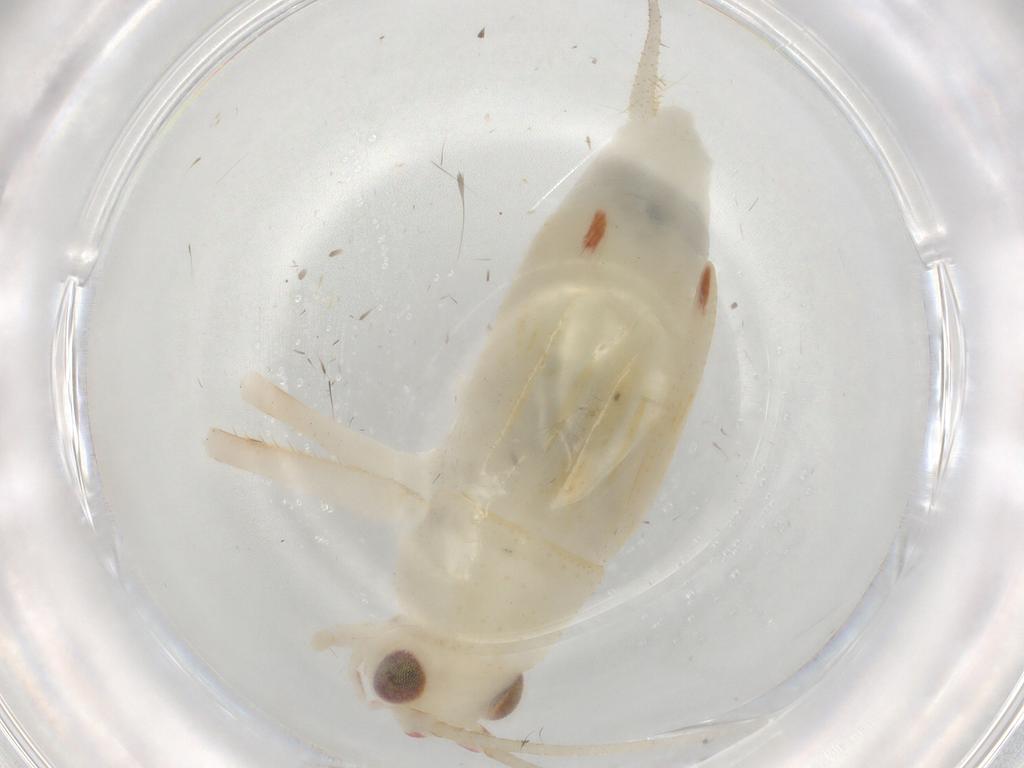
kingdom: Animalia
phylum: Arthropoda
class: Insecta
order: Orthoptera
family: Trigonidiidae
